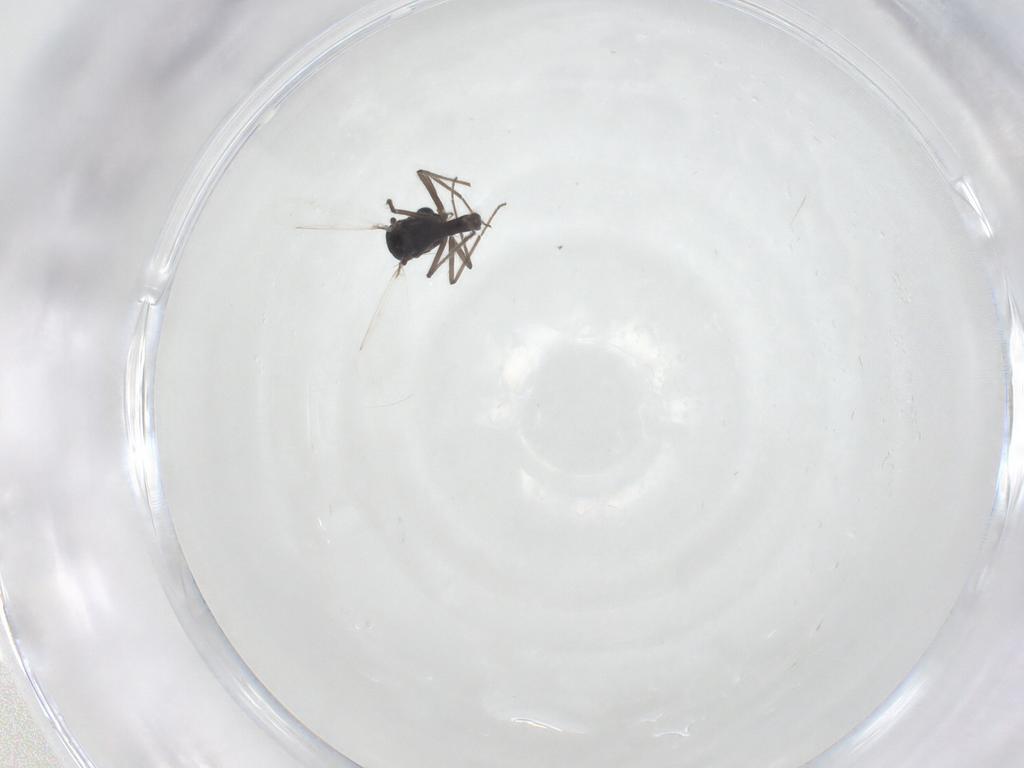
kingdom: Animalia
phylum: Arthropoda
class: Insecta
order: Diptera
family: Chironomidae
